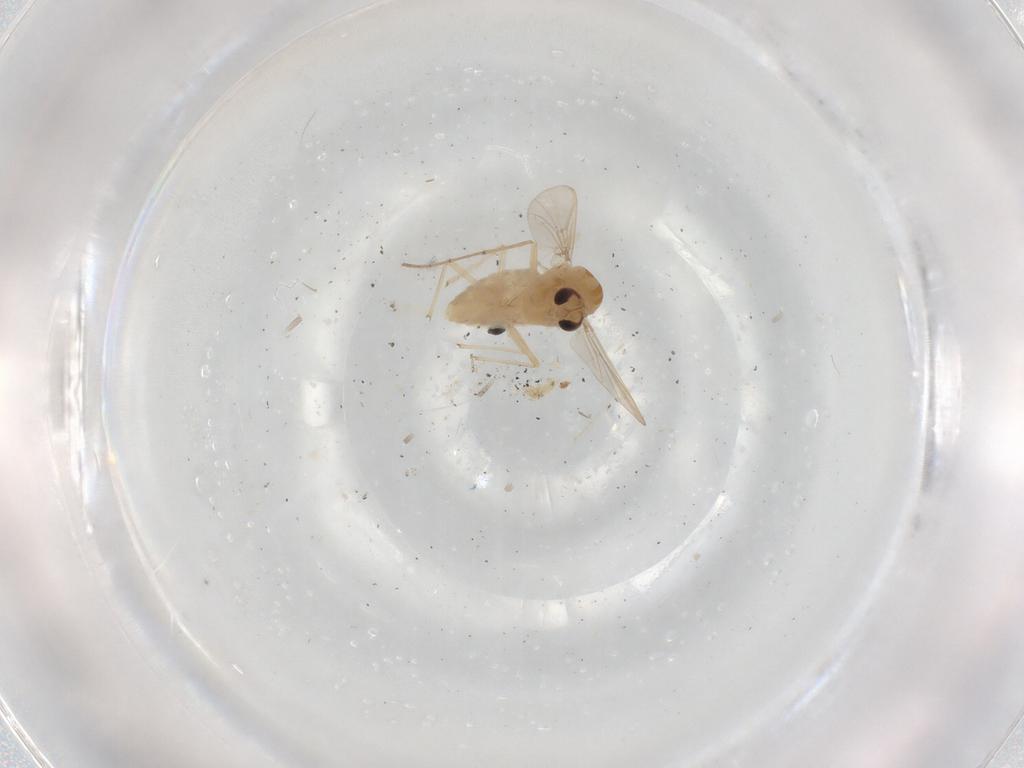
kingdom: Animalia
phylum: Arthropoda
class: Insecta
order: Diptera
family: Chironomidae
